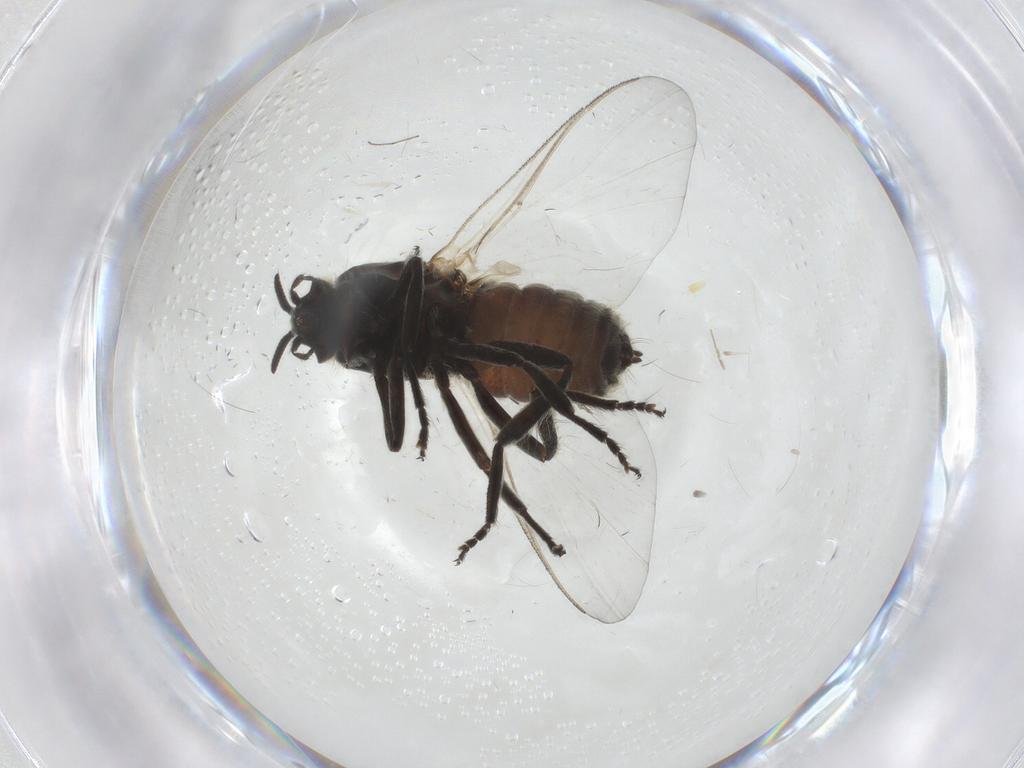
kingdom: Animalia
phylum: Arthropoda
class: Insecta
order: Diptera
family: Simuliidae
